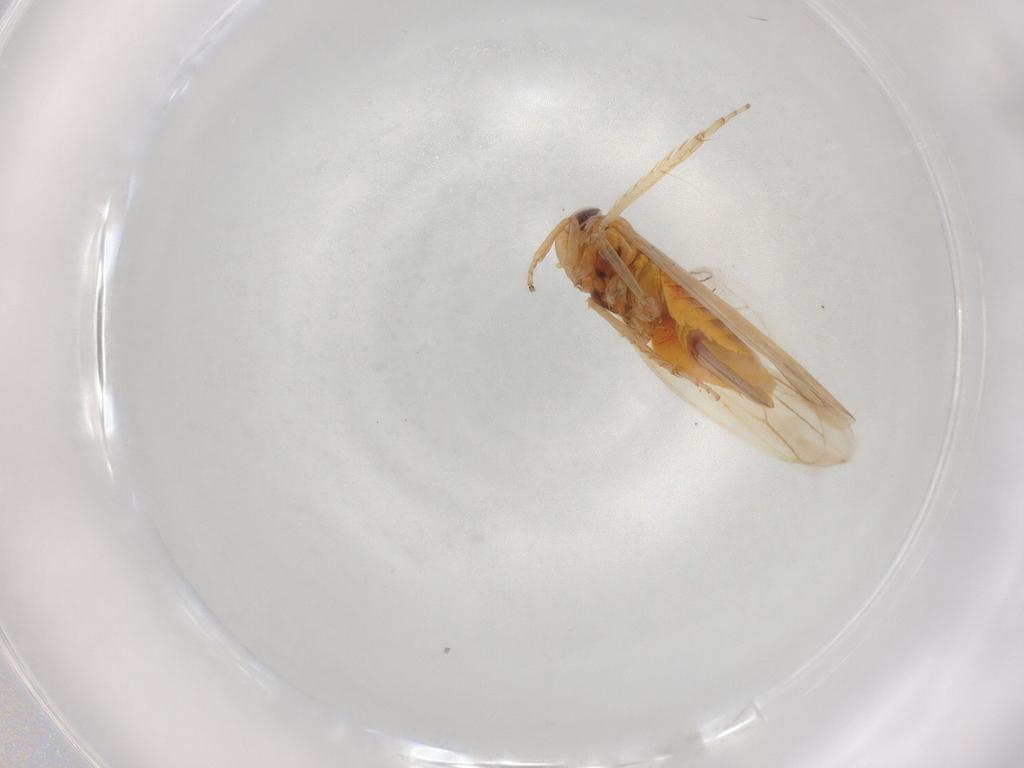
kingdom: Animalia
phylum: Arthropoda
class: Insecta
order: Hemiptera
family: Cicadellidae
